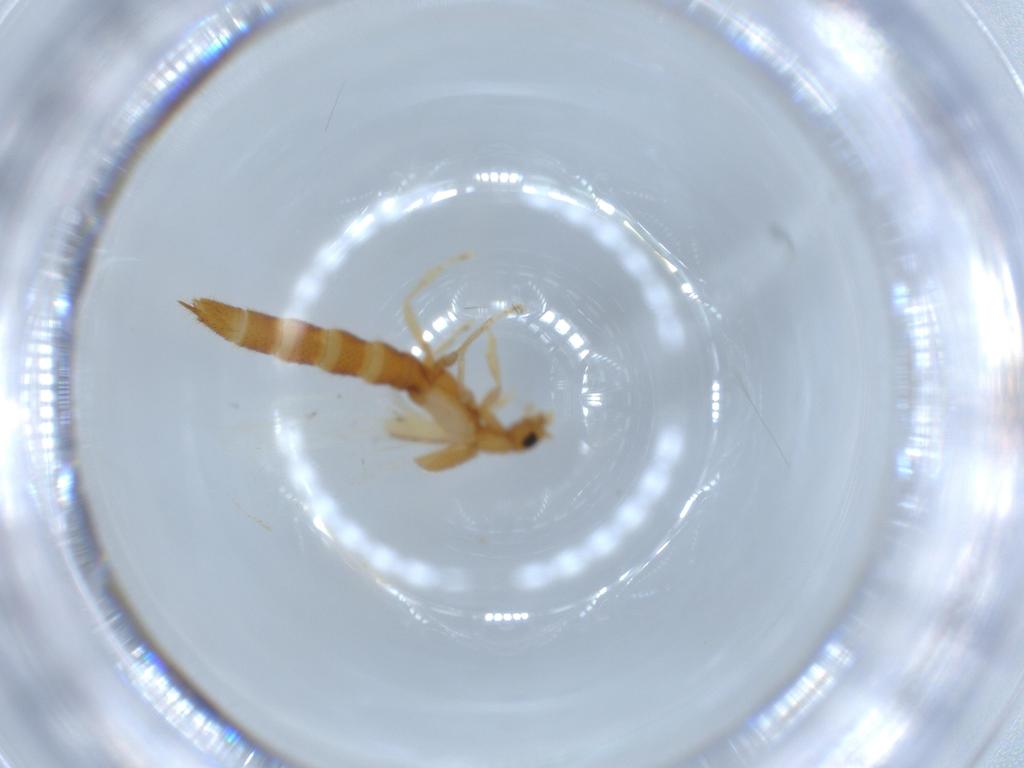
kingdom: Animalia
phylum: Arthropoda
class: Insecta
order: Coleoptera
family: Staphylinidae
